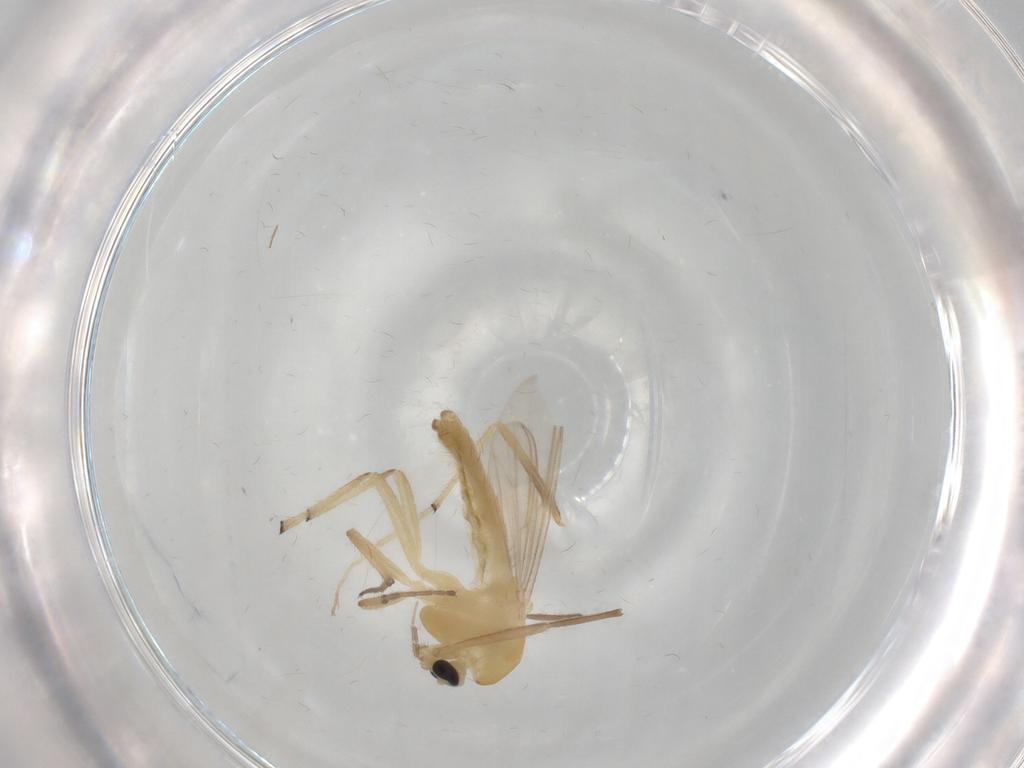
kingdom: Animalia
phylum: Arthropoda
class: Insecta
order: Diptera
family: Chironomidae
